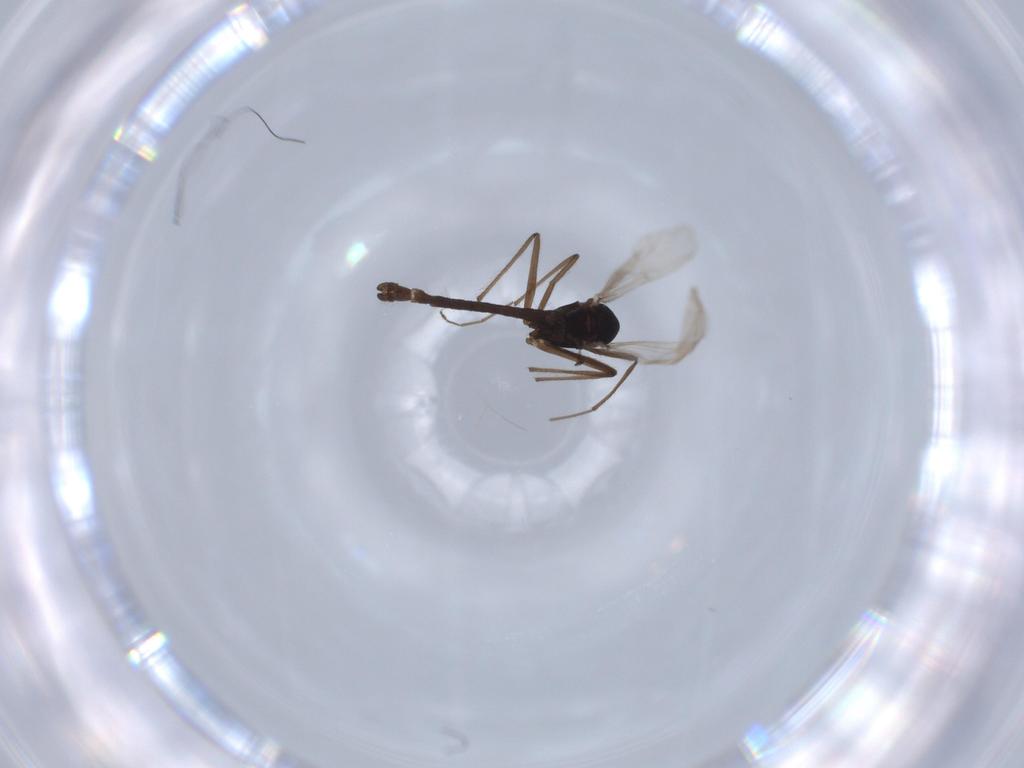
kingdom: Animalia
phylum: Arthropoda
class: Insecta
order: Diptera
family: Chironomidae
